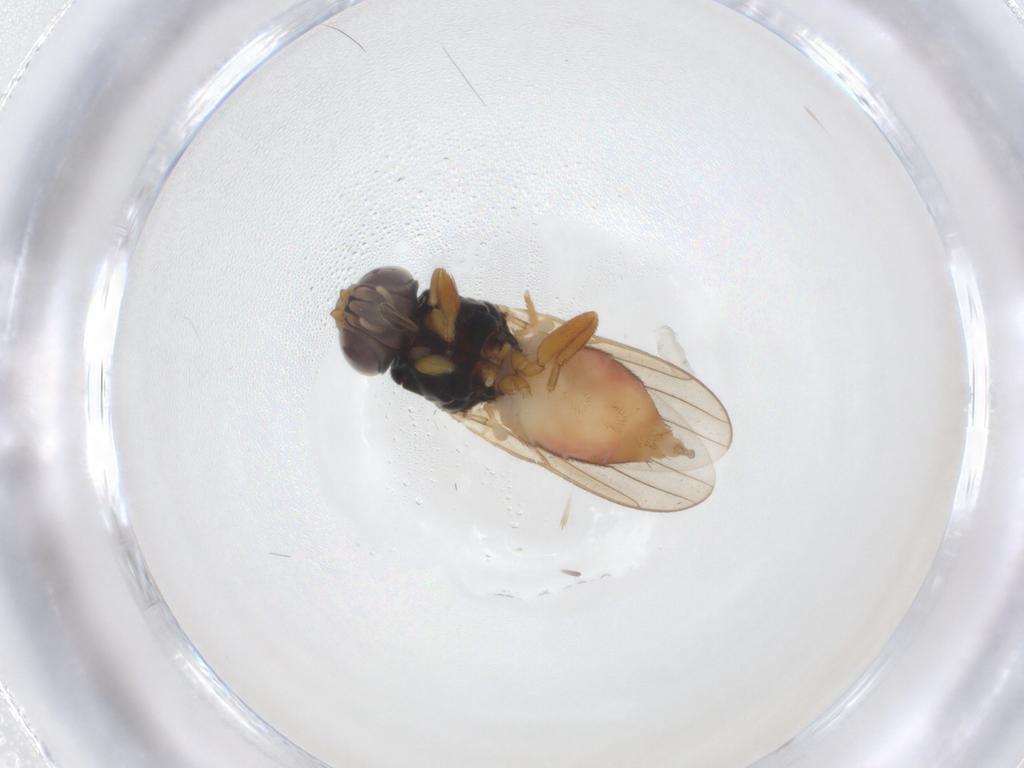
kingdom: Animalia
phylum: Arthropoda
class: Insecta
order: Diptera
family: Chloropidae
